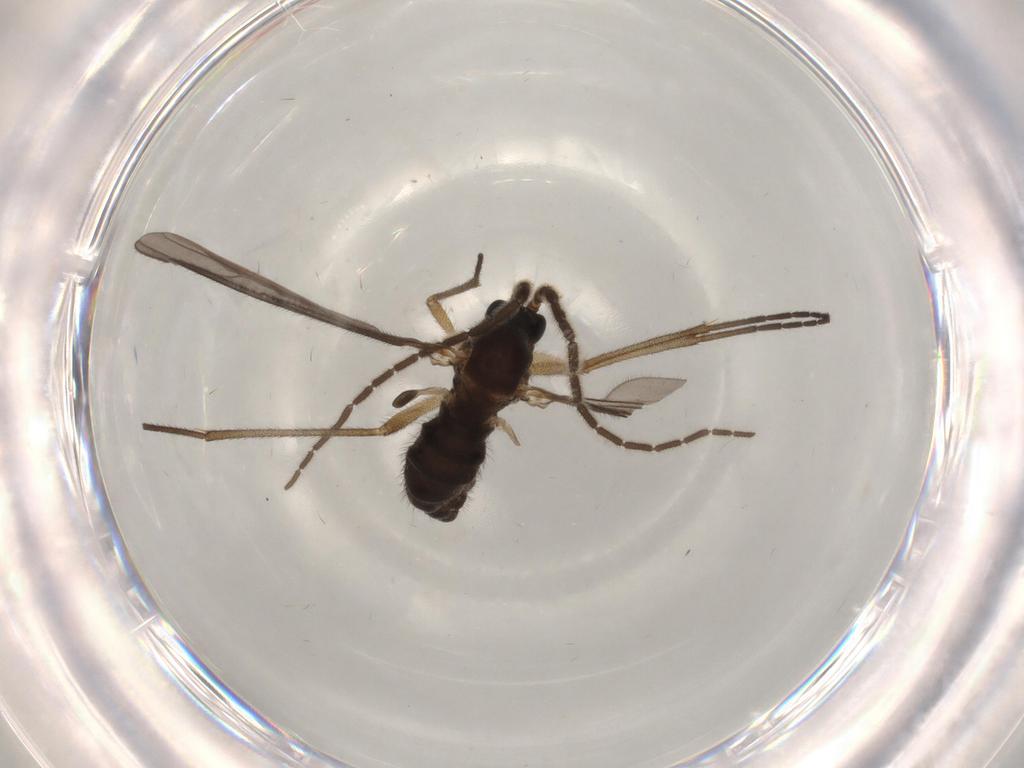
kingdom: Animalia
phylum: Arthropoda
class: Insecta
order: Diptera
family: Sciaridae
